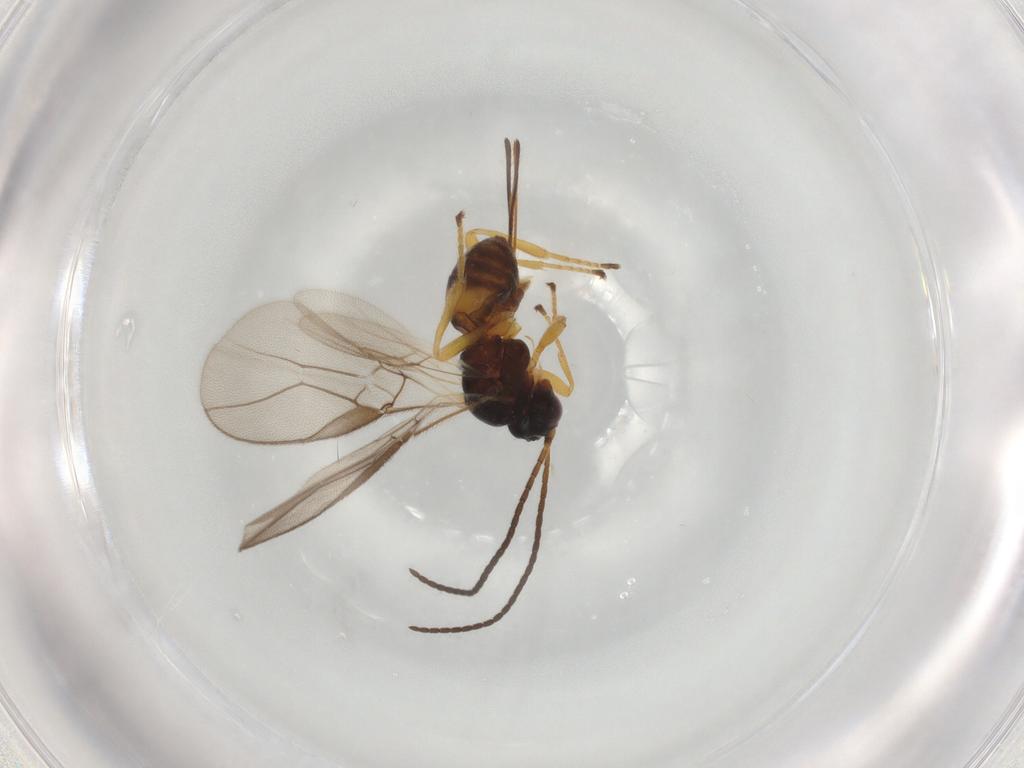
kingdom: Animalia
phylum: Arthropoda
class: Insecta
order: Hymenoptera
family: Braconidae
